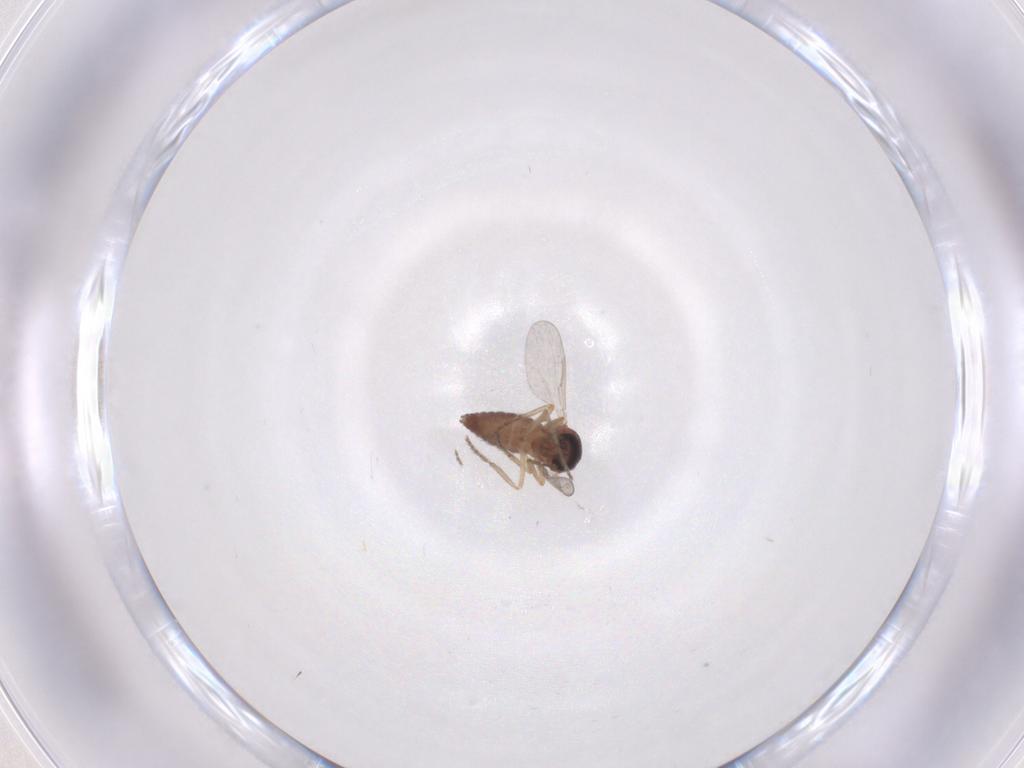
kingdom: Animalia
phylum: Arthropoda
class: Insecta
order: Diptera
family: Ceratopogonidae
